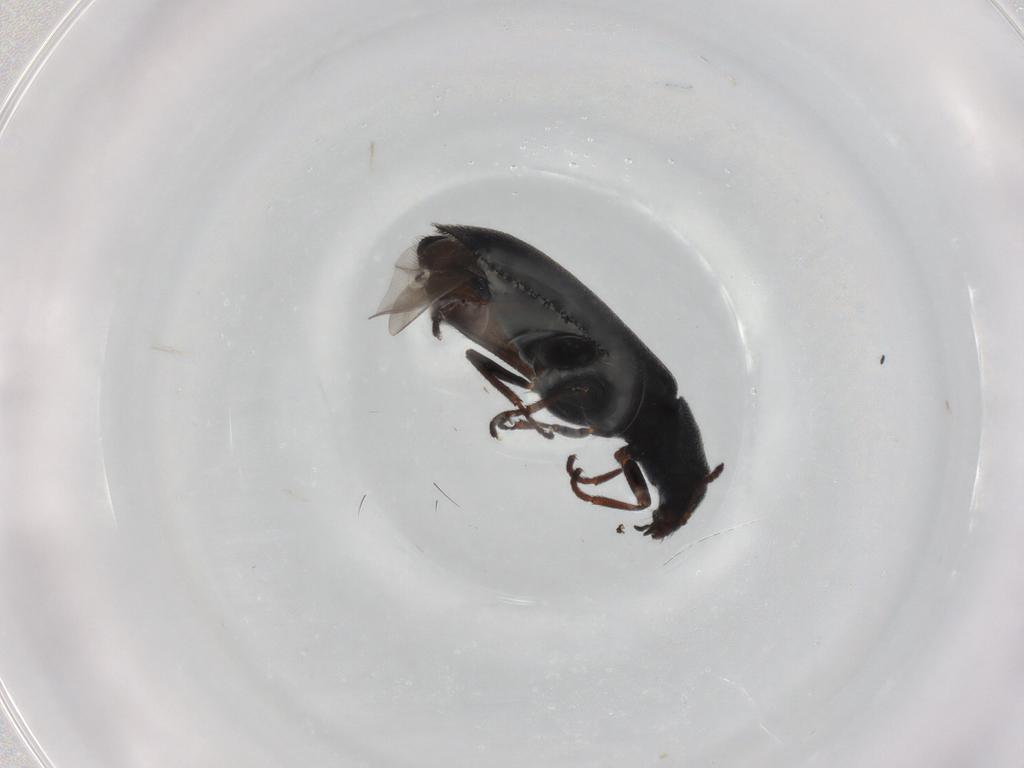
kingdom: Animalia
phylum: Arthropoda
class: Insecta
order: Coleoptera
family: Melyridae
